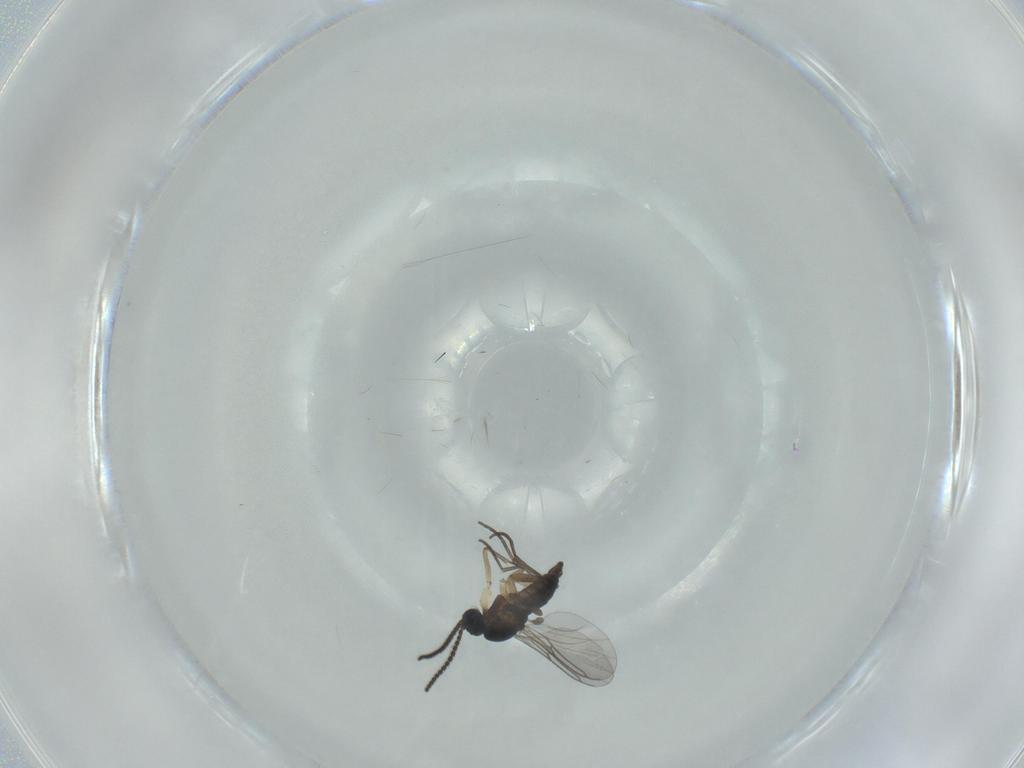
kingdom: Animalia
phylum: Arthropoda
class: Insecta
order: Diptera
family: Sciaridae
